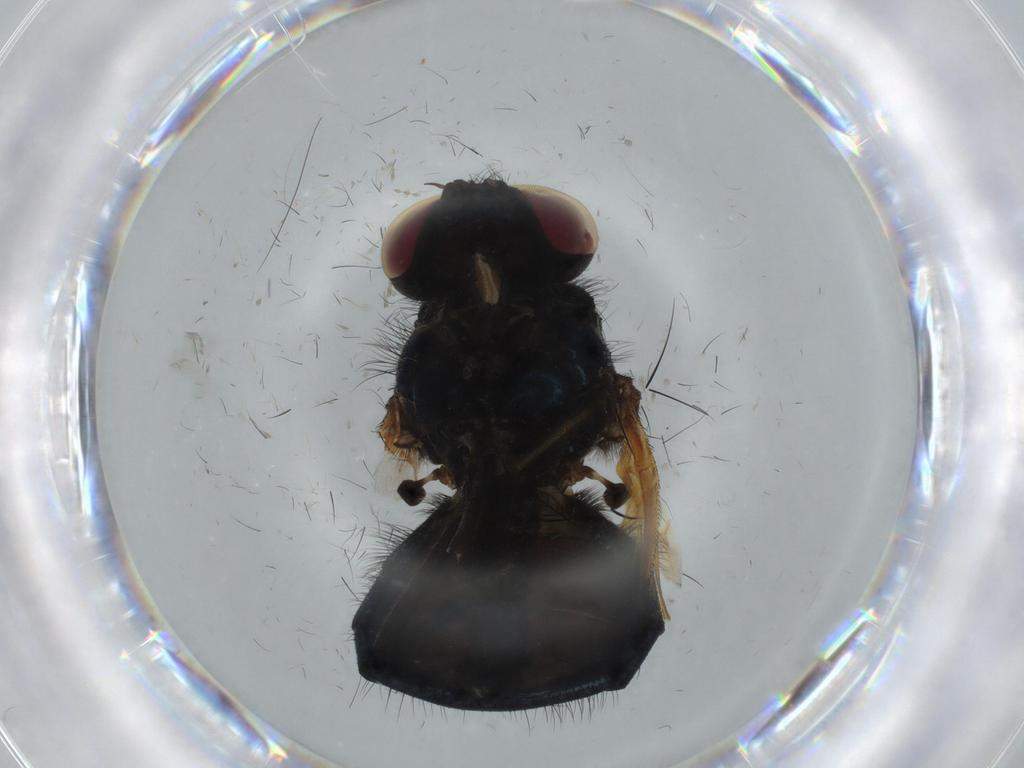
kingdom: Animalia
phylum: Arthropoda
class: Insecta
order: Diptera
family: Lonchaeidae
